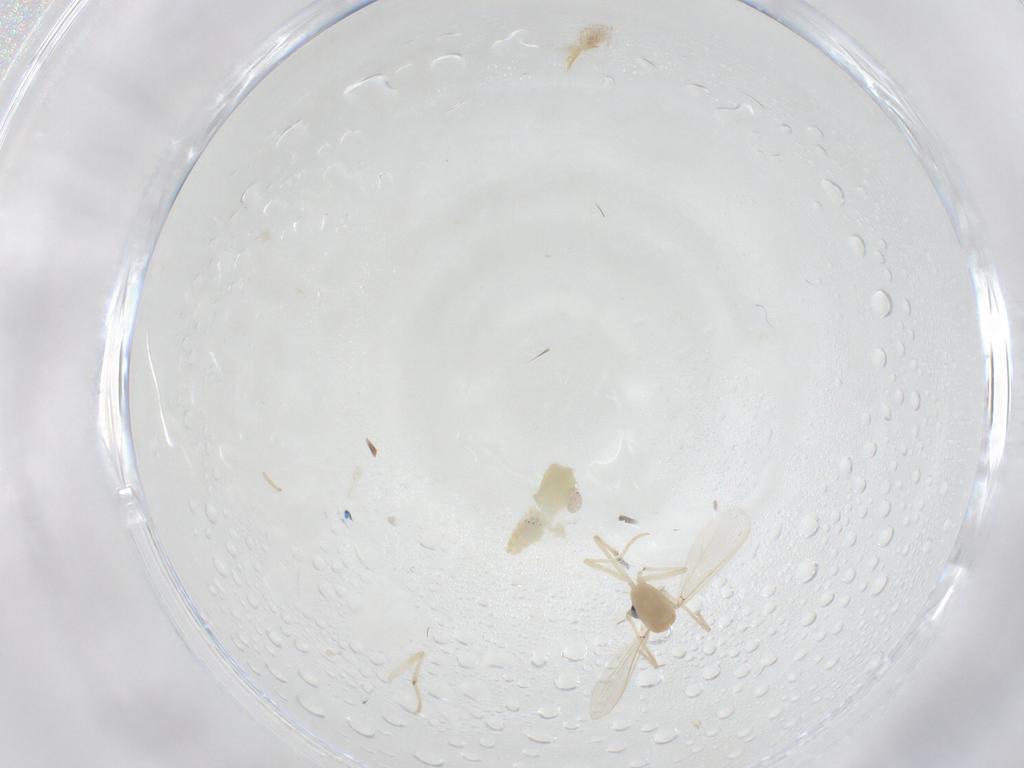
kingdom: Animalia
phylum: Arthropoda
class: Insecta
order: Diptera
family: Chironomidae
